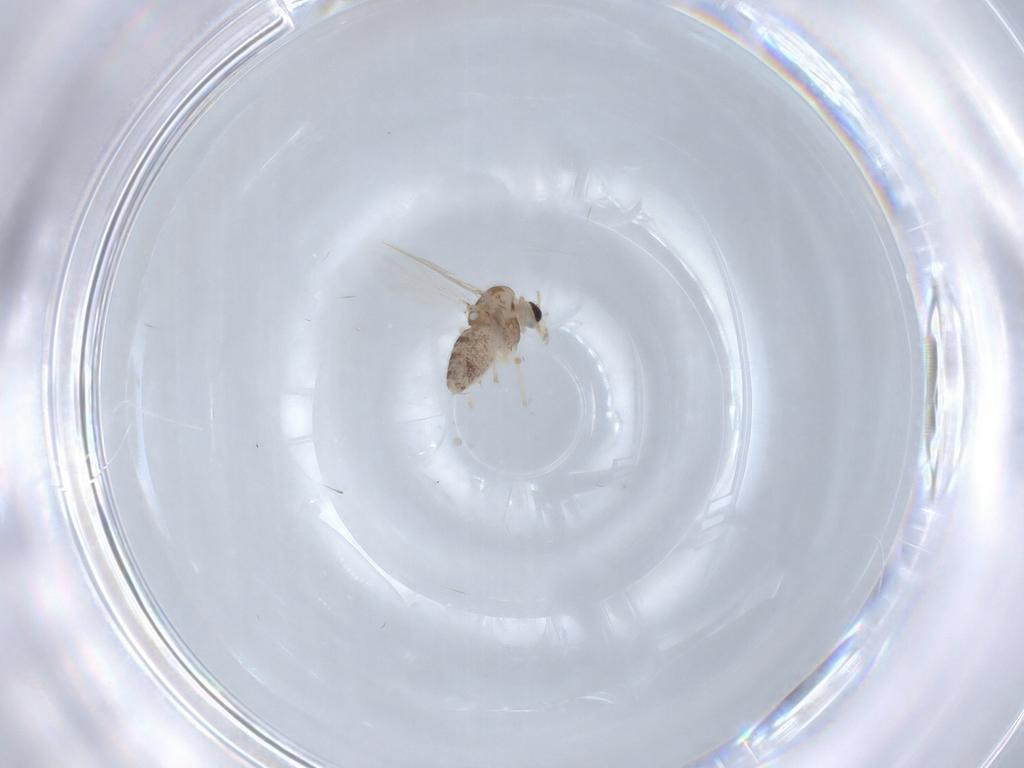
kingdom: Animalia
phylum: Arthropoda
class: Insecta
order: Diptera
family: Chironomidae
